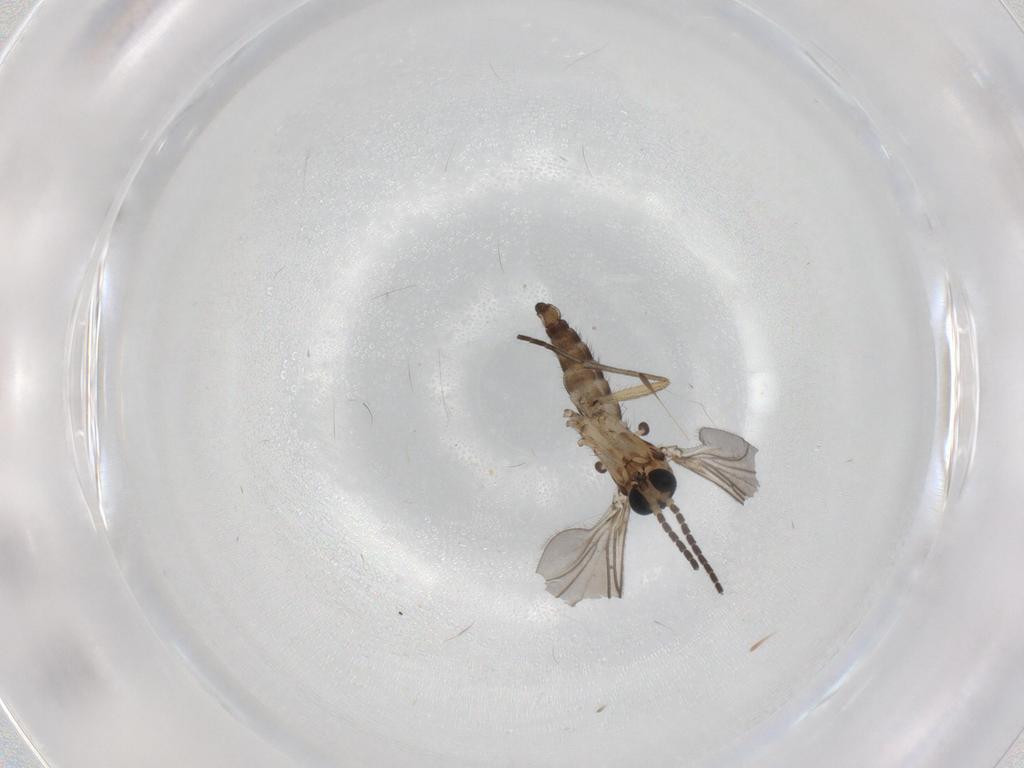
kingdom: Animalia
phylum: Arthropoda
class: Insecta
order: Diptera
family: Sciaridae
